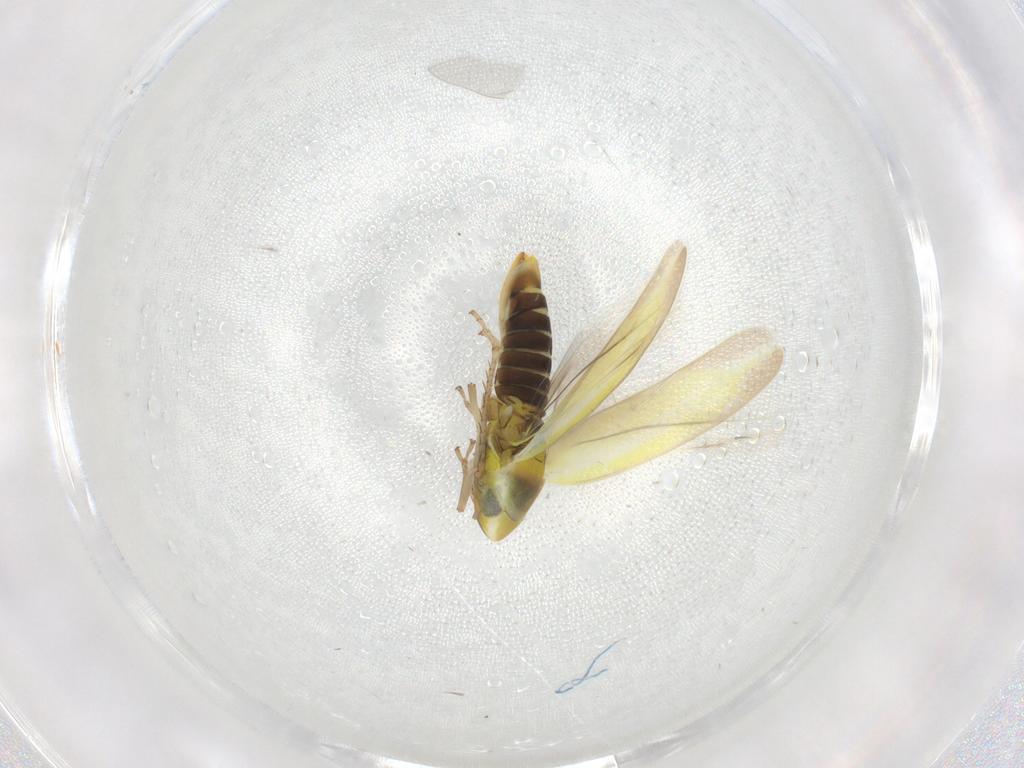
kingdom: Animalia
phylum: Arthropoda
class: Insecta
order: Hemiptera
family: Cicadellidae
